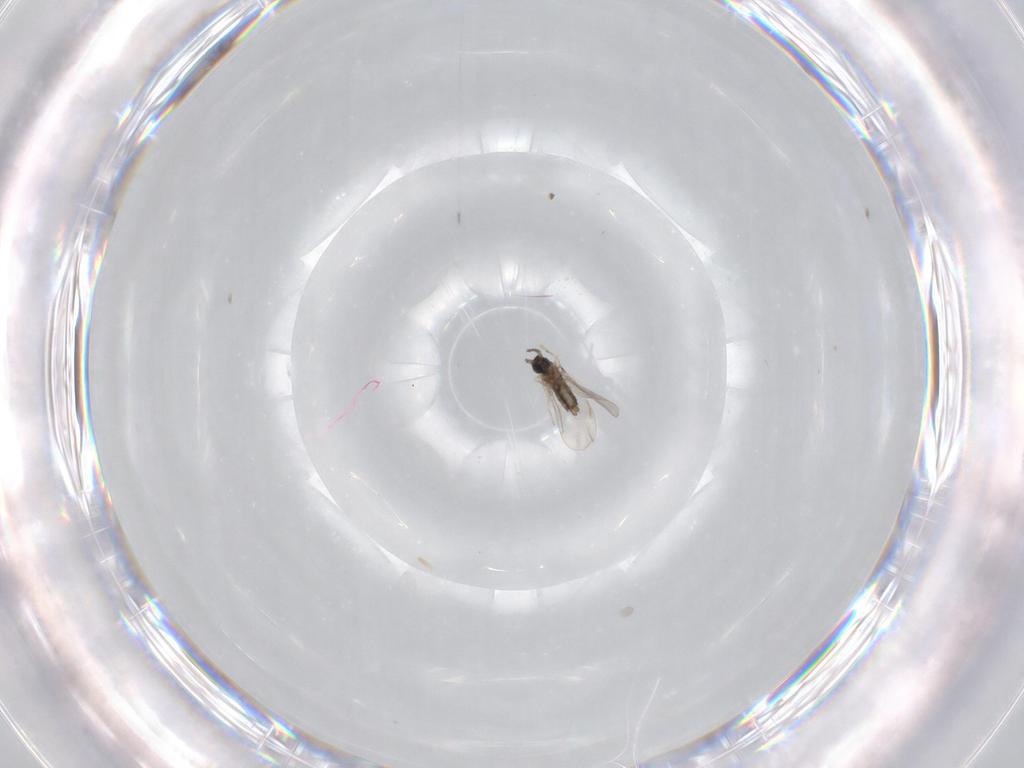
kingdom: Animalia
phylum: Arthropoda
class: Insecta
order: Diptera
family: Cecidomyiidae
